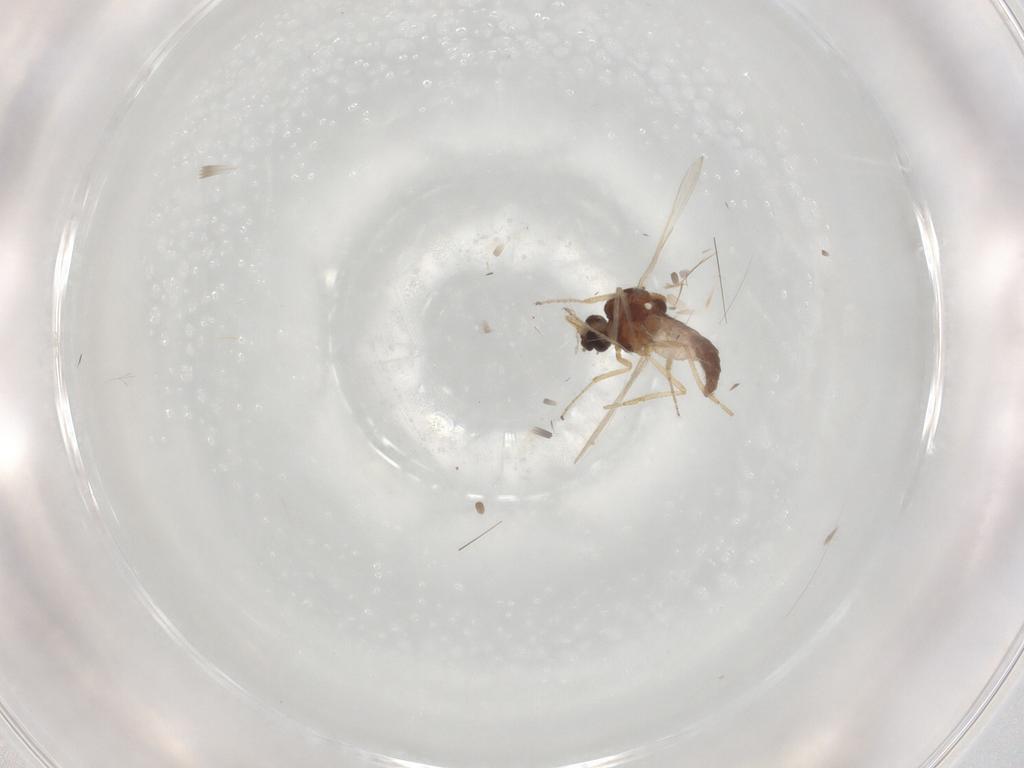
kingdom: Animalia
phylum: Arthropoda
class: Insecta
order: Diptera
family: Ceratopogonidae
